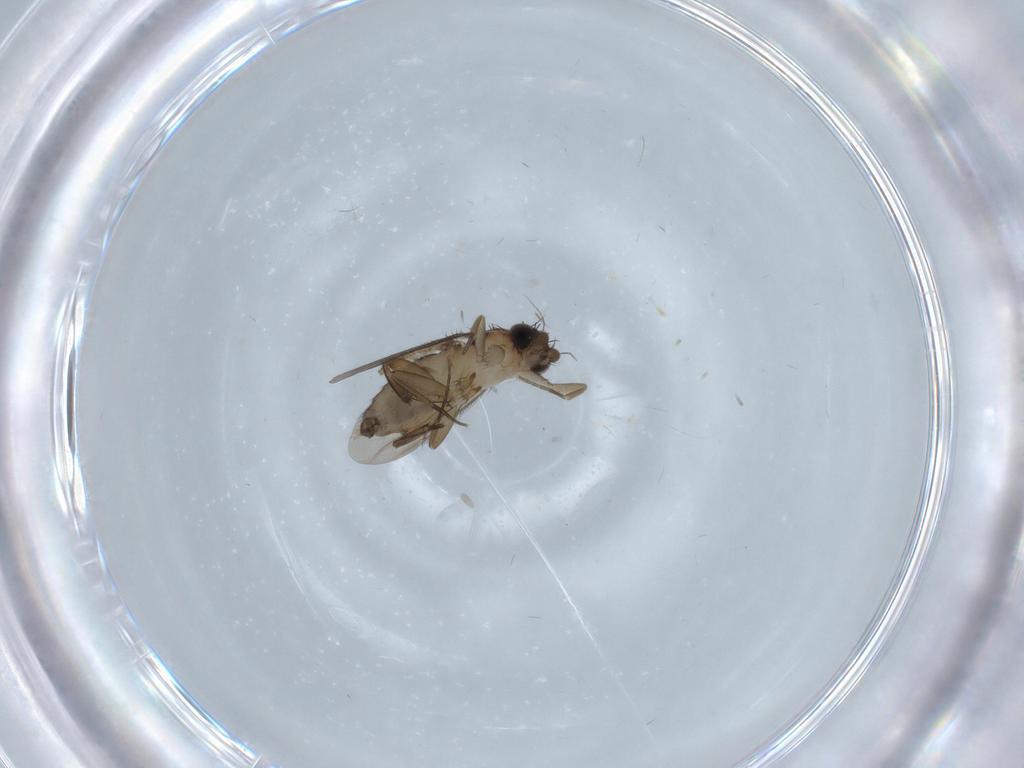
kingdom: Animalia
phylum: Arthropoda
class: Insecta
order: Diptera
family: Phoridae
